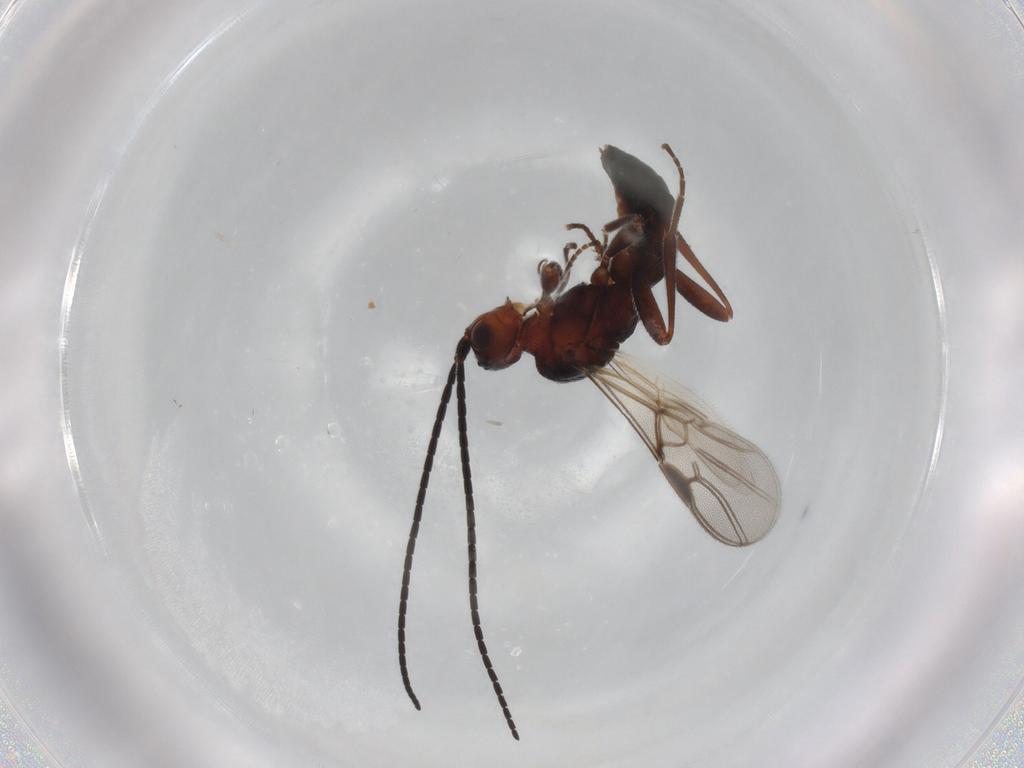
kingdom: Animalia
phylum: Arthropoda
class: Insecta
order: Hymenoptera
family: Braconidae
